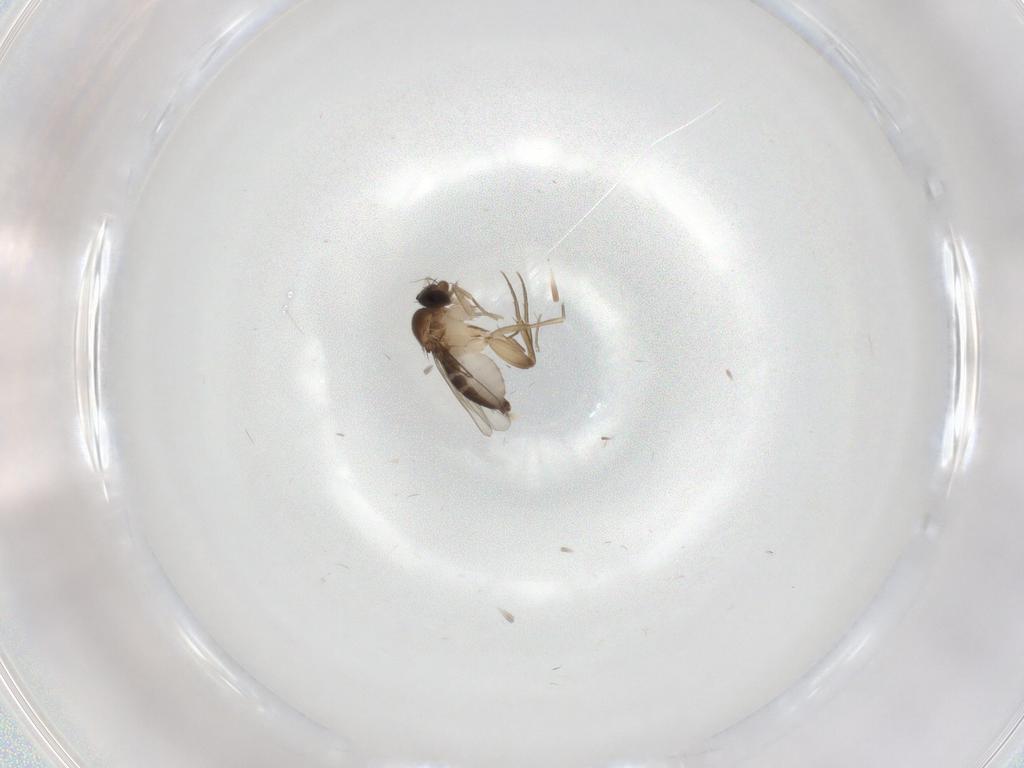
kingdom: Animalia
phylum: Arthropoda
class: Insecta
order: Diptera
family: Phoridae
